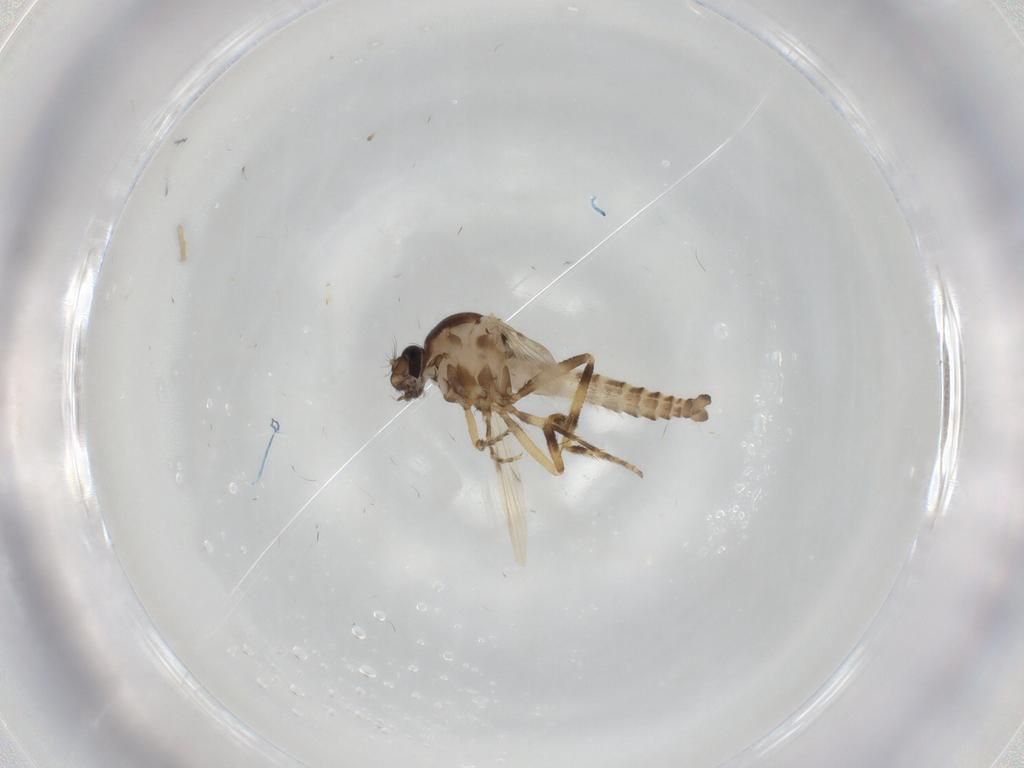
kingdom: Animalia
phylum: Arthropoda
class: Insecta
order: Diptera
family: Ceratopogonidae
